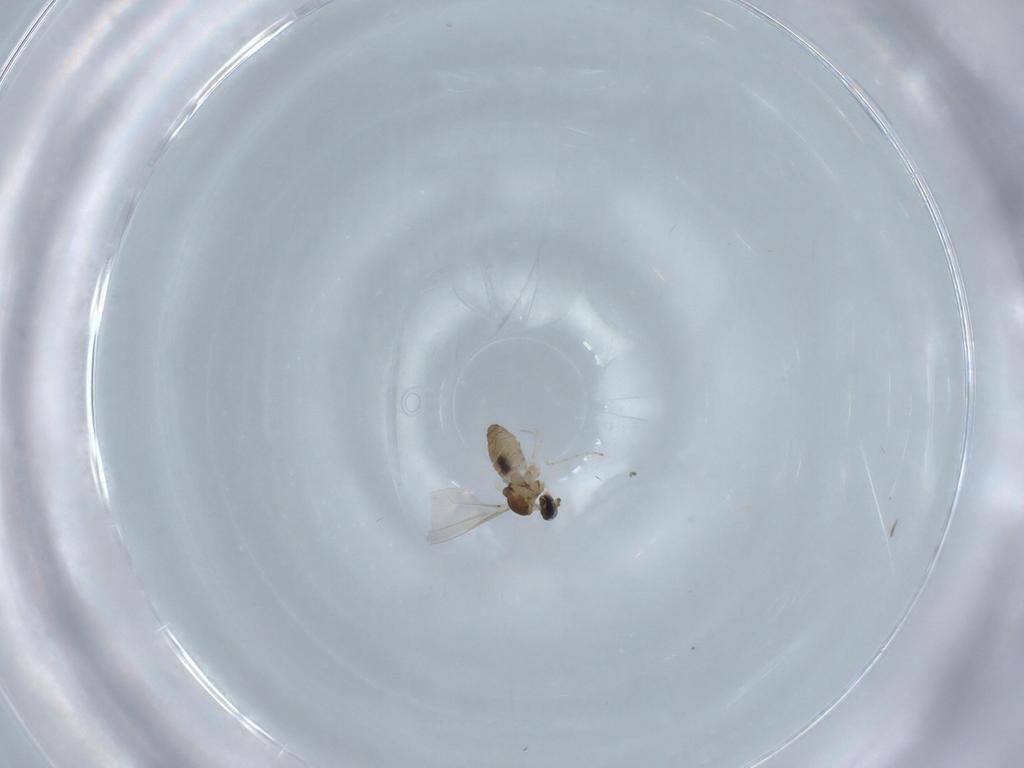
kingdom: Animalia
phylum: Arthropoda
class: Insecta
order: Diptera
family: Cecidomyiidae
